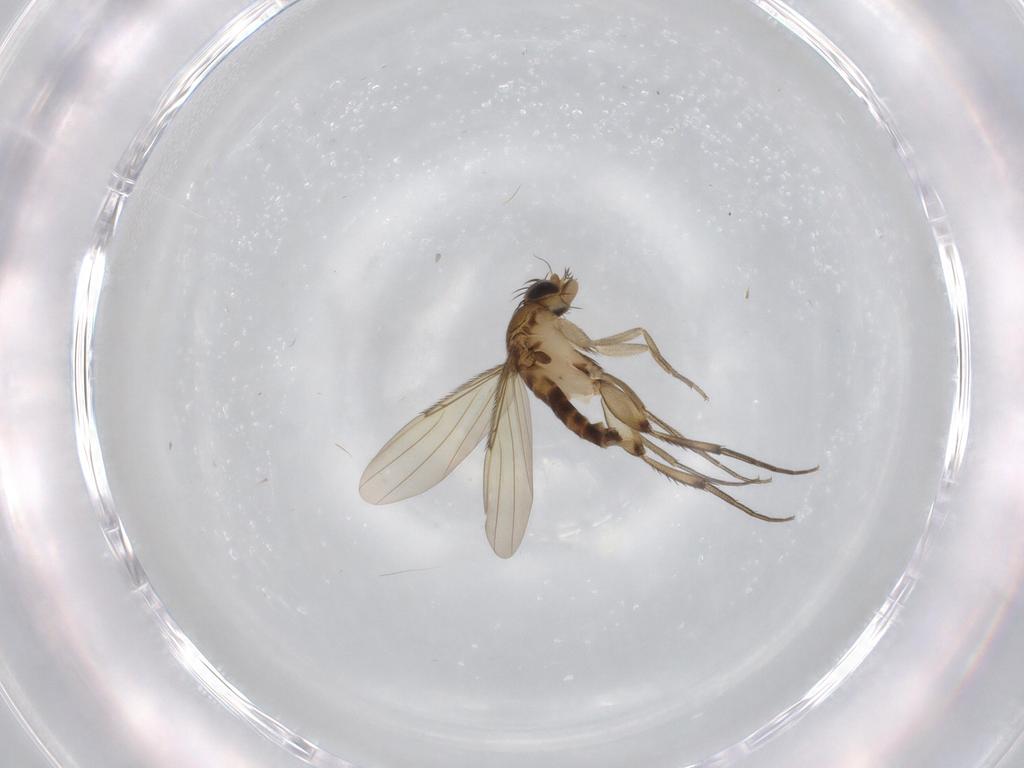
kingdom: Animalia
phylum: Arthropoda
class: Insecta
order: Diptera
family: Phoridae
